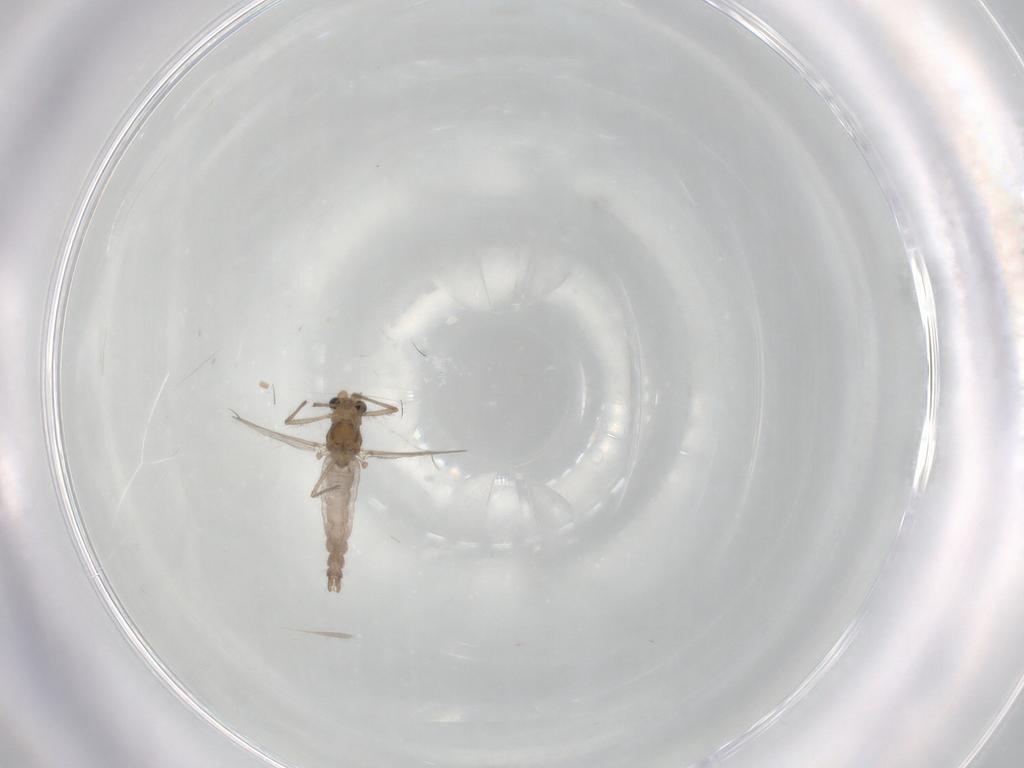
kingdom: Animalia
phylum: Arthropoda
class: Insecta
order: Diptera
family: Chironomidae
